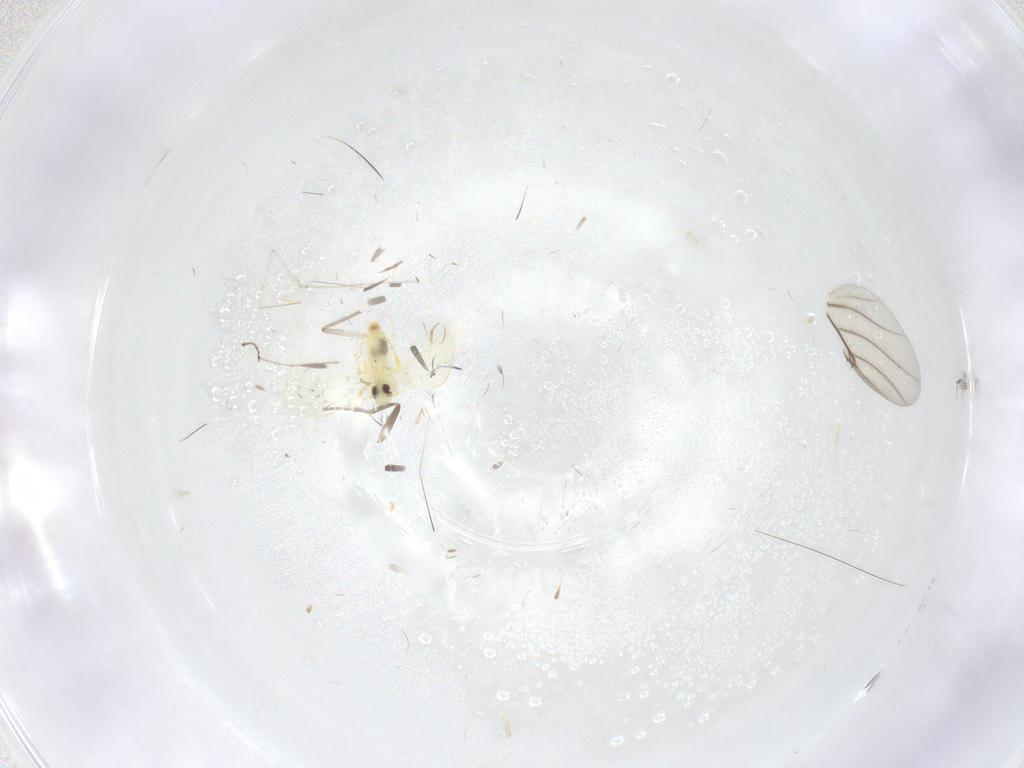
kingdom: Animalia
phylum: Arthropoda
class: Insecta
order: Hemiptera
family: Aleyrodidae
